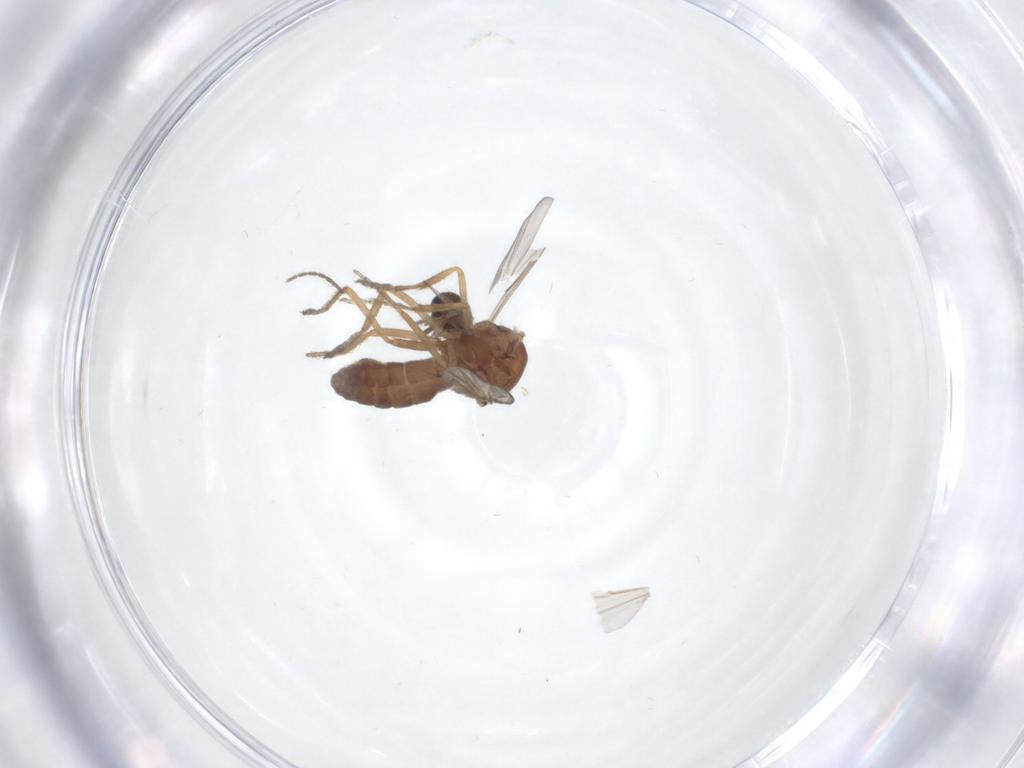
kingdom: Animalia
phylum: Arthropoda
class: Insecta
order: Diptera
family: Ceratopogonidae
